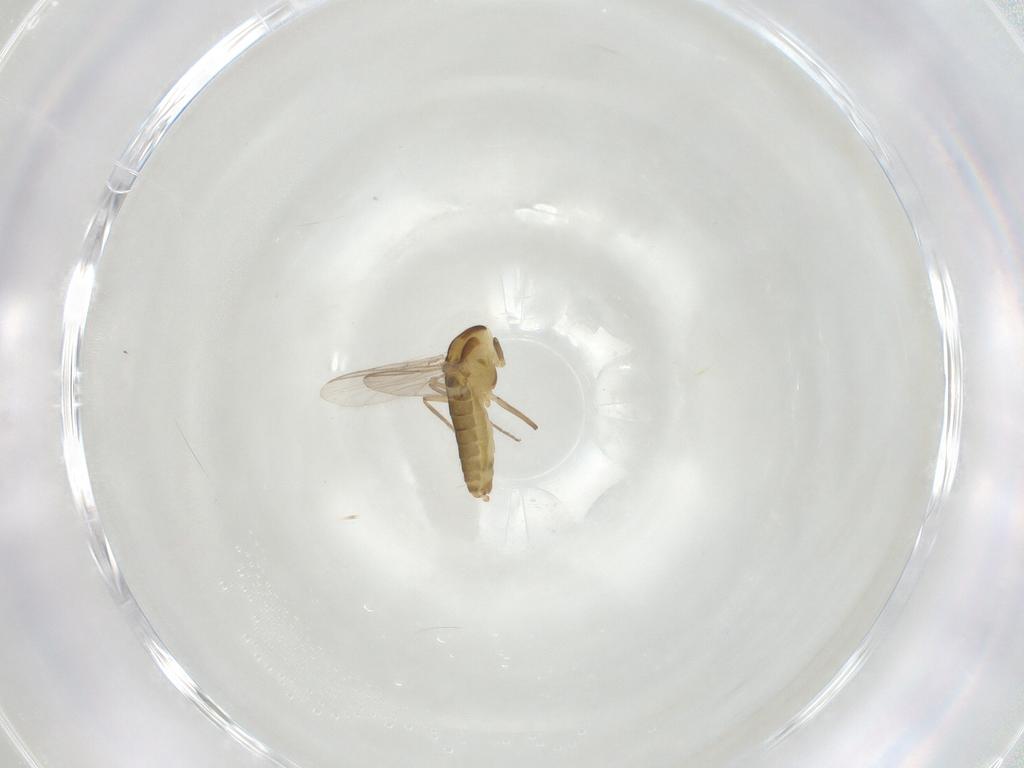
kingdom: Animalia
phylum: Arthropoda
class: Insecta
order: Diptera
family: Chironomidae
